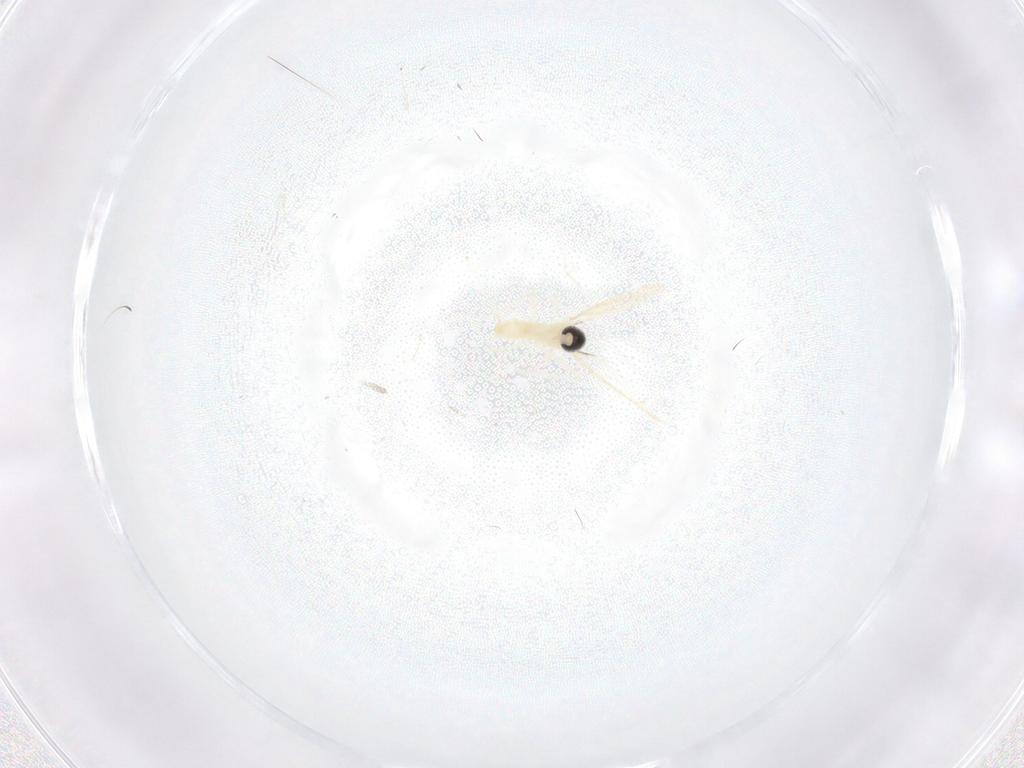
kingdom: Animalia
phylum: Arthropoda
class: Insecta
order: Diptera
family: Cecidomyiidae
